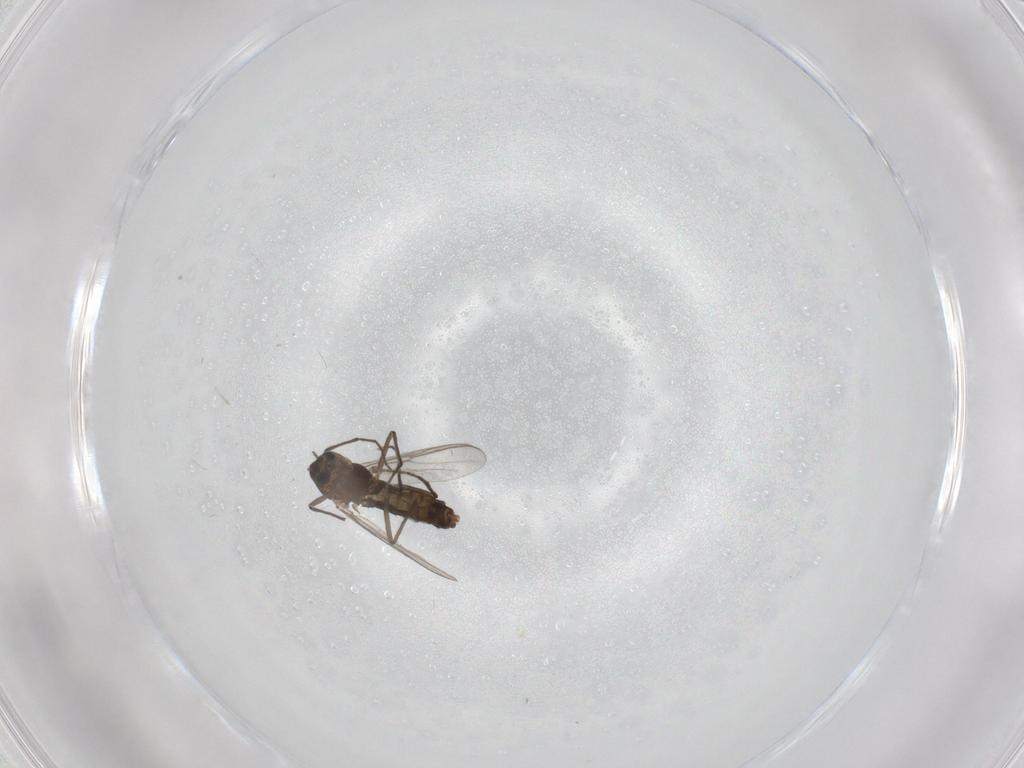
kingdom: Animalia
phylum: Arthropoda
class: Insecta
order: Diptera
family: Chironomidae
